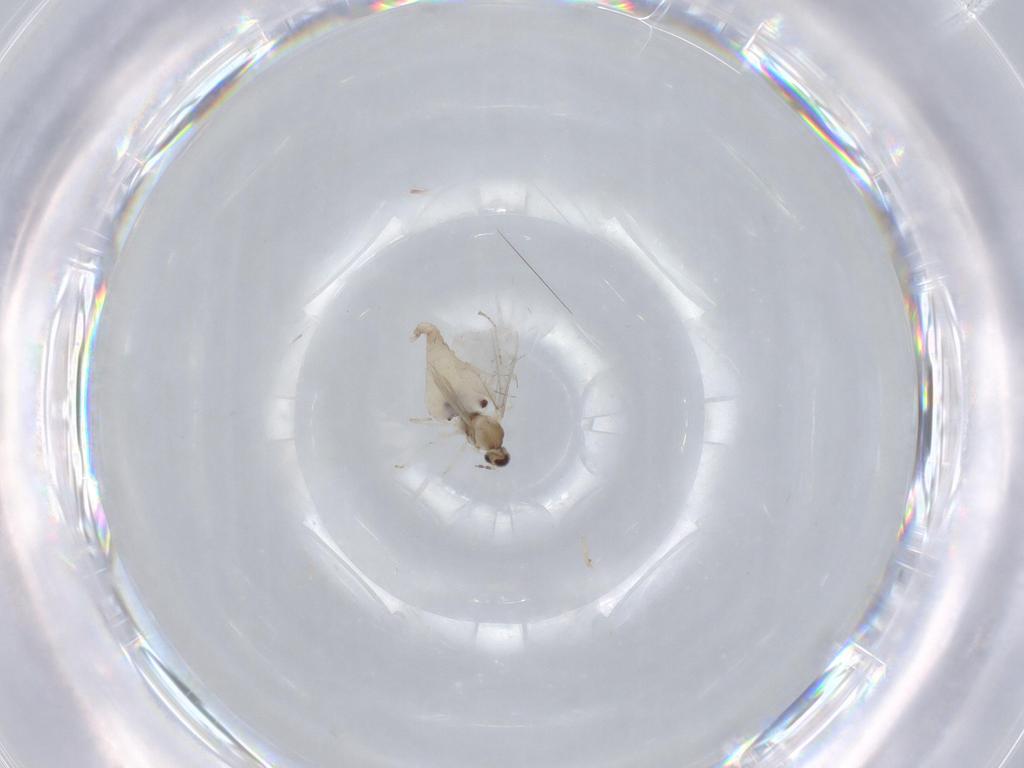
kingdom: Animalia
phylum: Arthropoda
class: Insecta
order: Diptera
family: Cecidomyiidae
